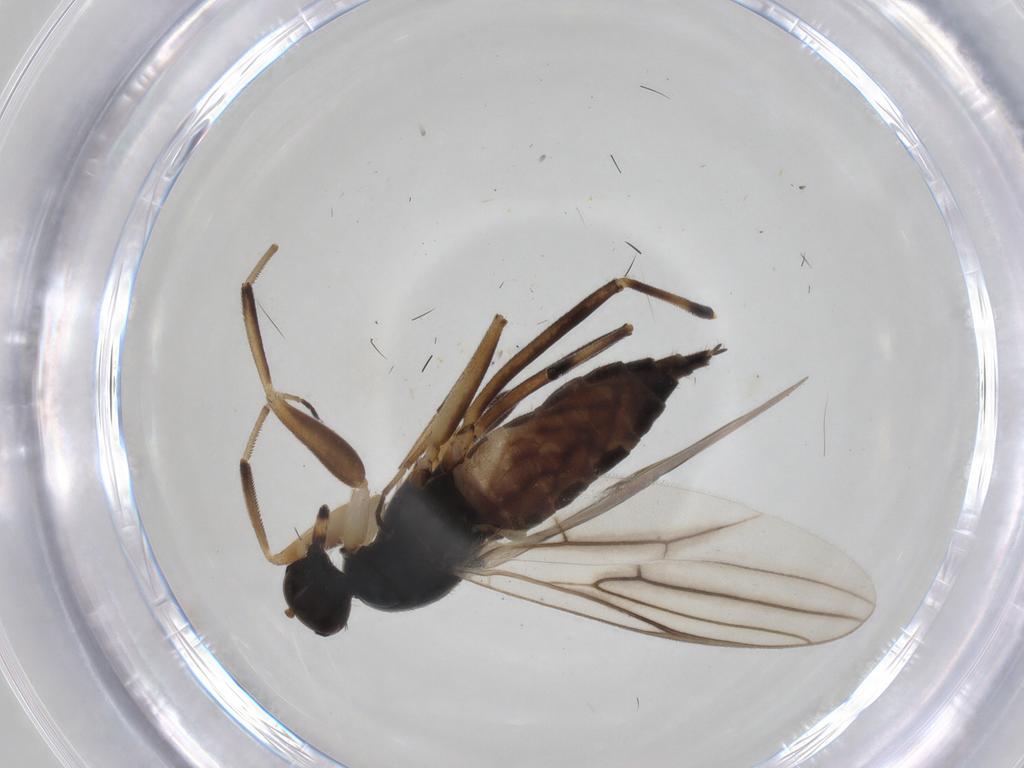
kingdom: Animalia
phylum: Arthropoda
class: Insecta
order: Diptera
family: Hybotidae
